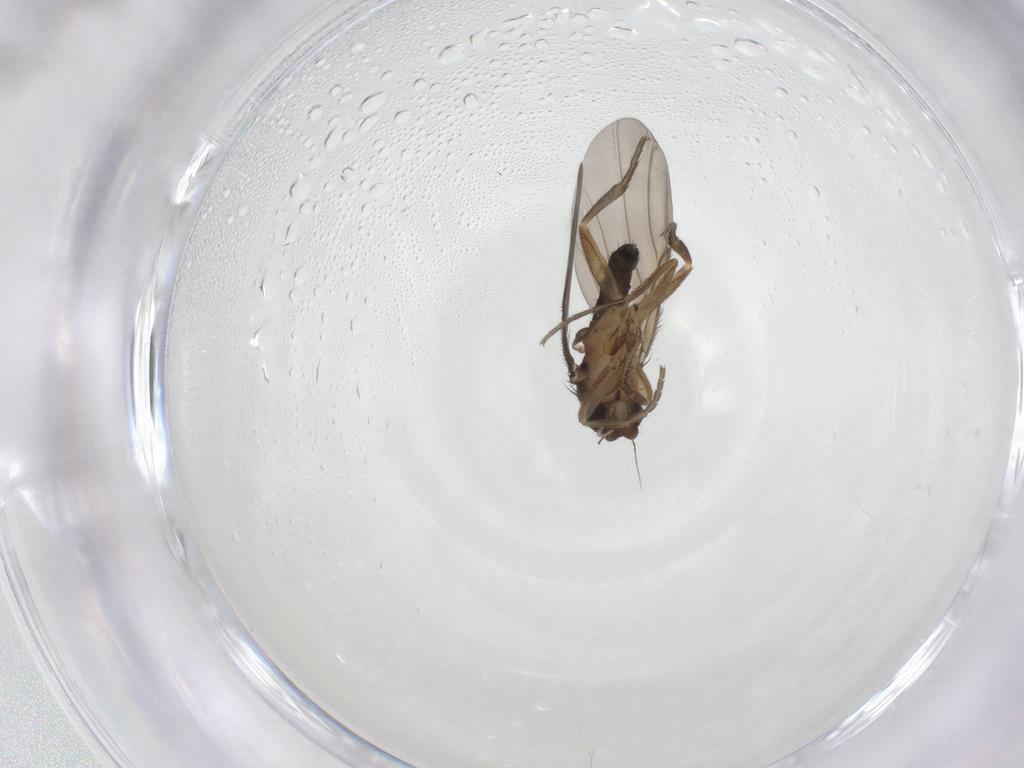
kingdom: Animalia
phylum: Arthropoda
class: Insecta
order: Diptera
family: Phoridae
